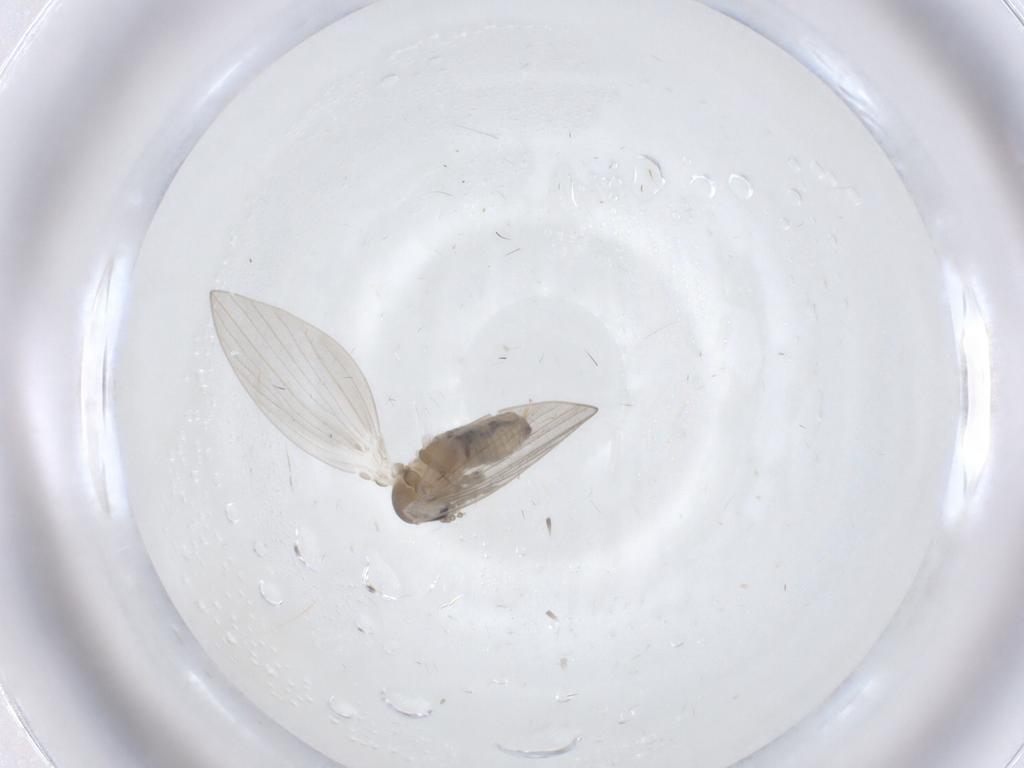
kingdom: Animalia
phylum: Arthropoda
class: Insecta
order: Diptera
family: Psychodidae
